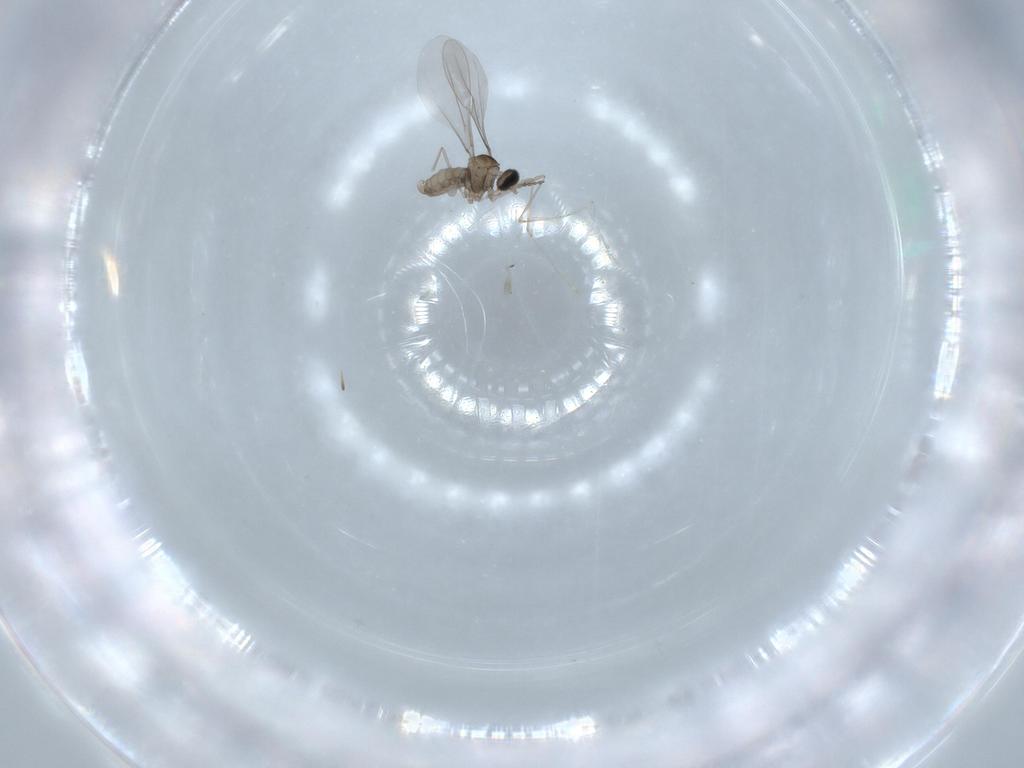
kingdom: Animalia
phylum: Arthropoda
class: Insecta
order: Diptera
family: Cecidomyiidae
